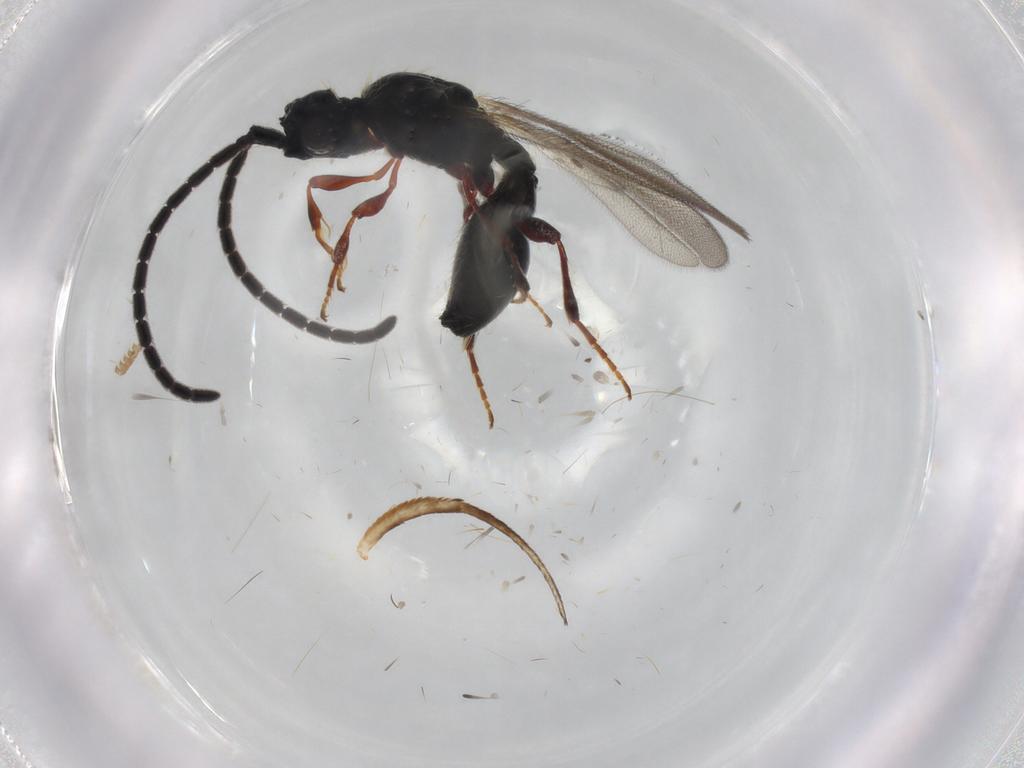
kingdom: Animalia
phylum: Arthropoda
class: Insecta
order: Hymenoptera
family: Diapriidae
